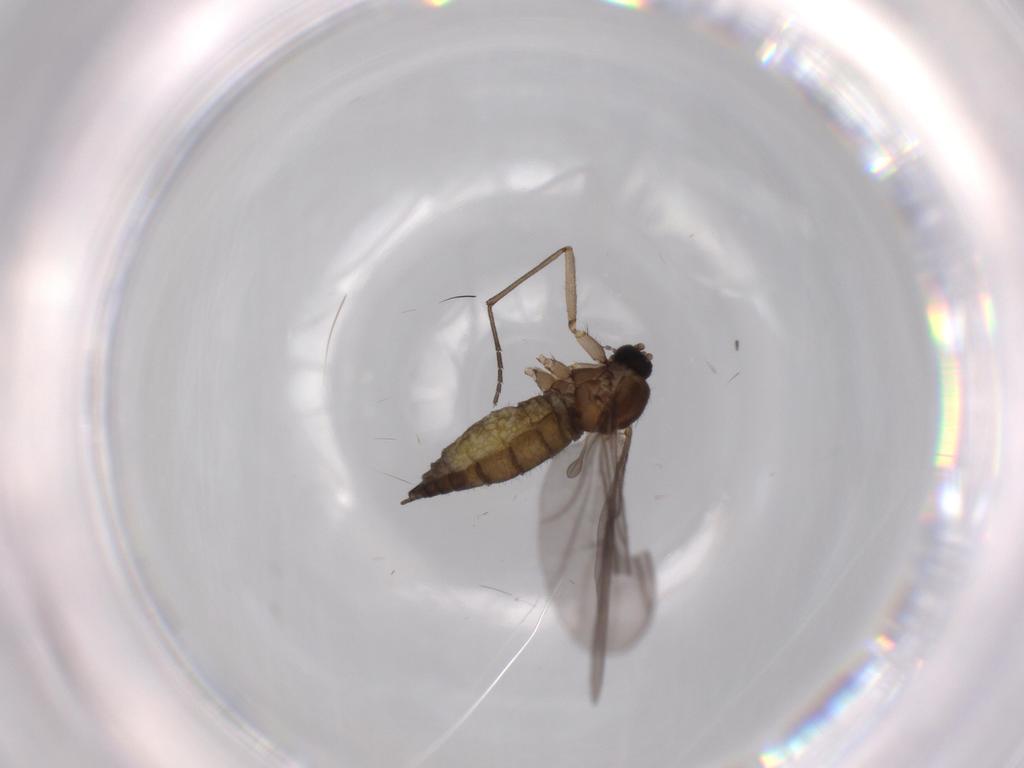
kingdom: Animalia
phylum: Arthropoda
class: Insecta
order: Diptera
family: Sciaridae
